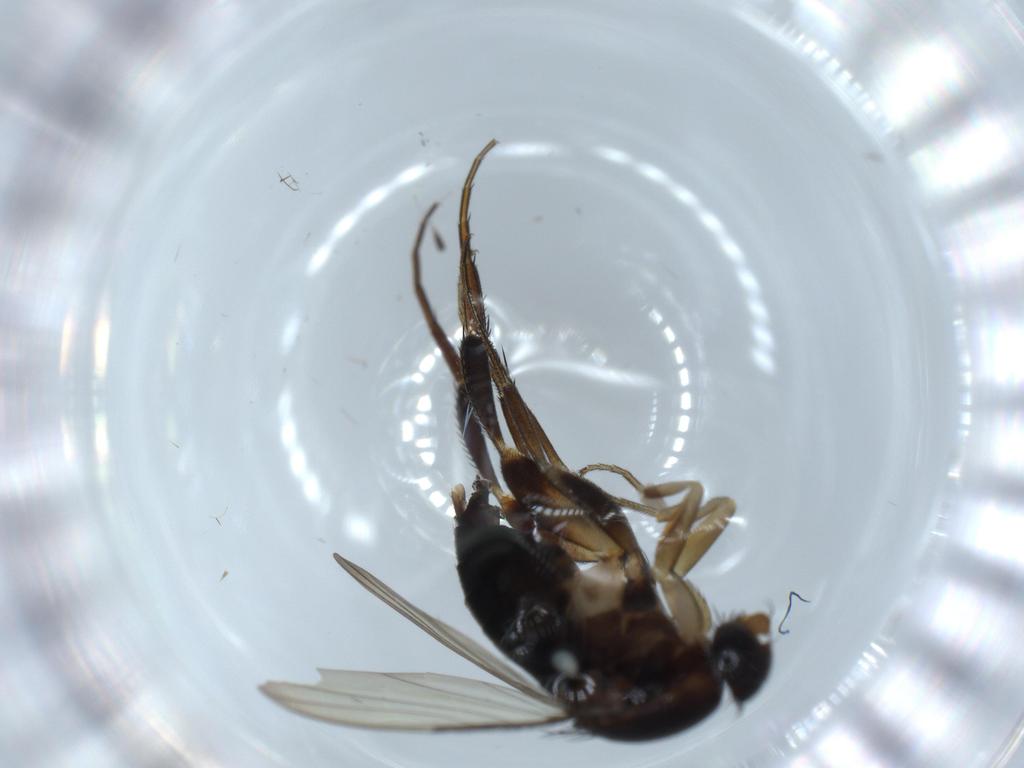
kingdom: Animalia
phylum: Arthropoda
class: Insecta
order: Diptera
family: Phoridae
